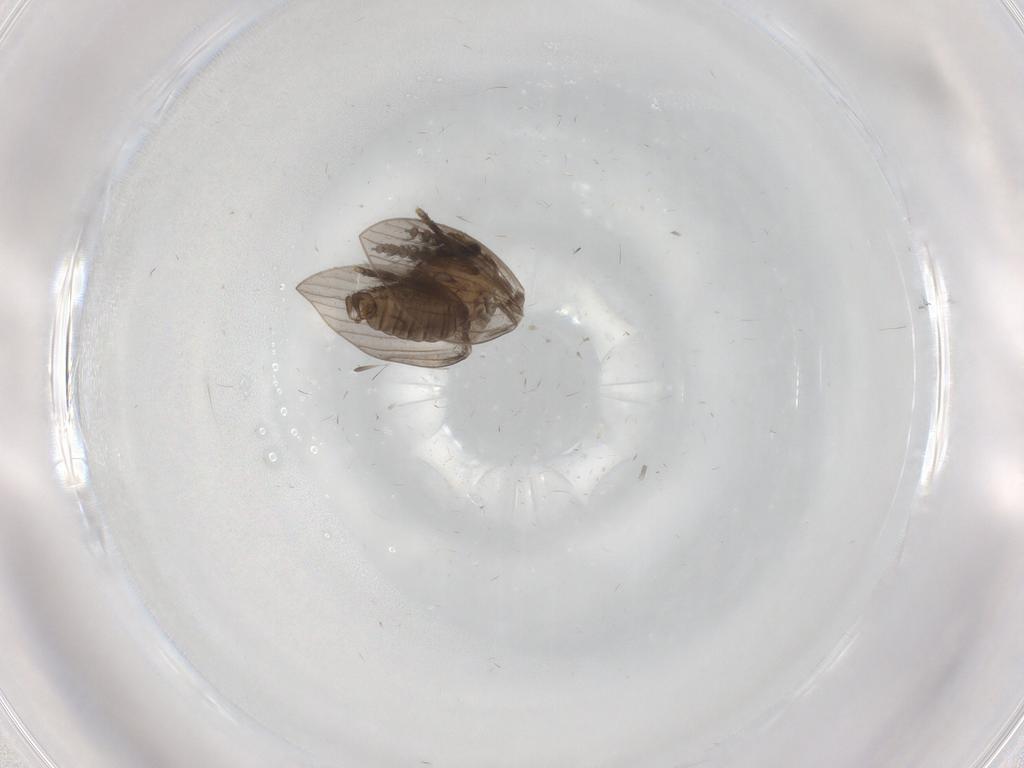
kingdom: Animalia
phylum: Arthropoda
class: Insecta
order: Diptera
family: Psychodidae
